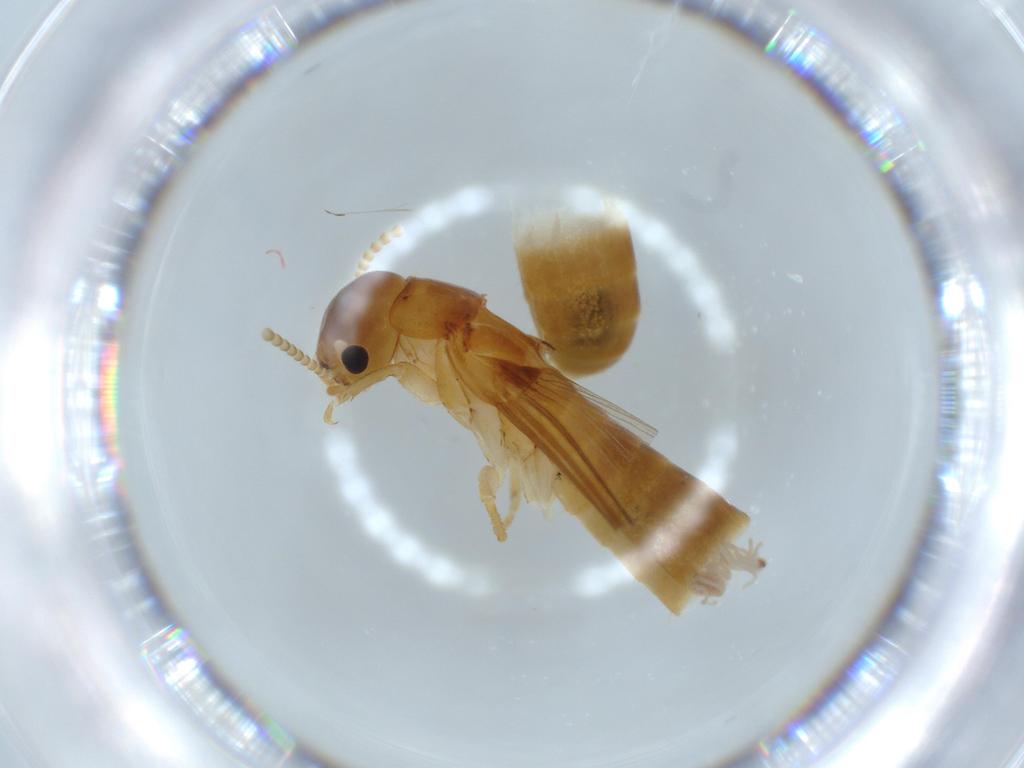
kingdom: Animalia
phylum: Arthropoda
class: Insecta
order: Blattodea
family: Kalotermitidae
